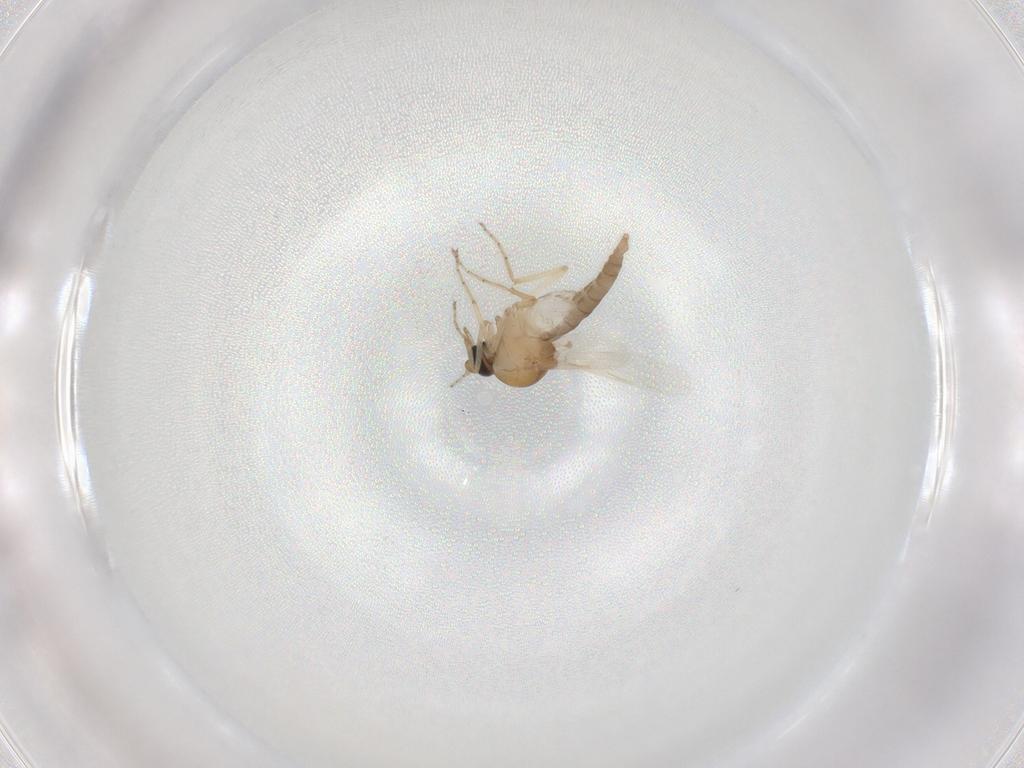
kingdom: Animalia
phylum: Arthropoda
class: Insecta
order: Diptera
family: Ceratopogonidae
